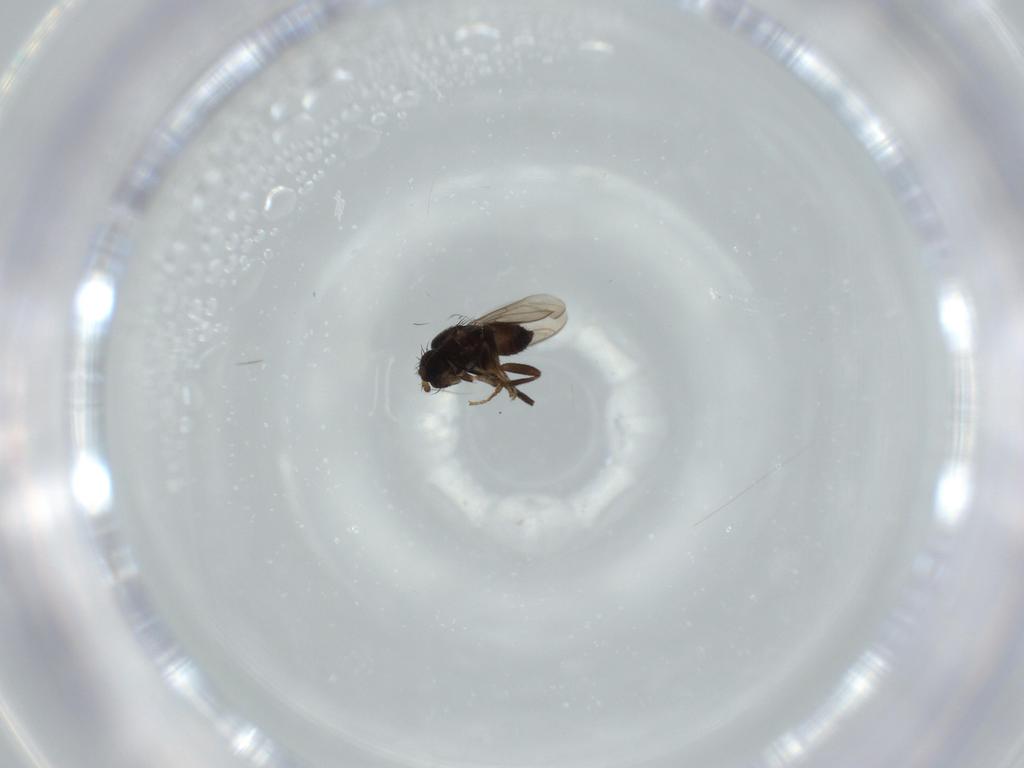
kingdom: Animalia
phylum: Arthropoda
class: Insecta
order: Diptera
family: Sphaeroceridae
